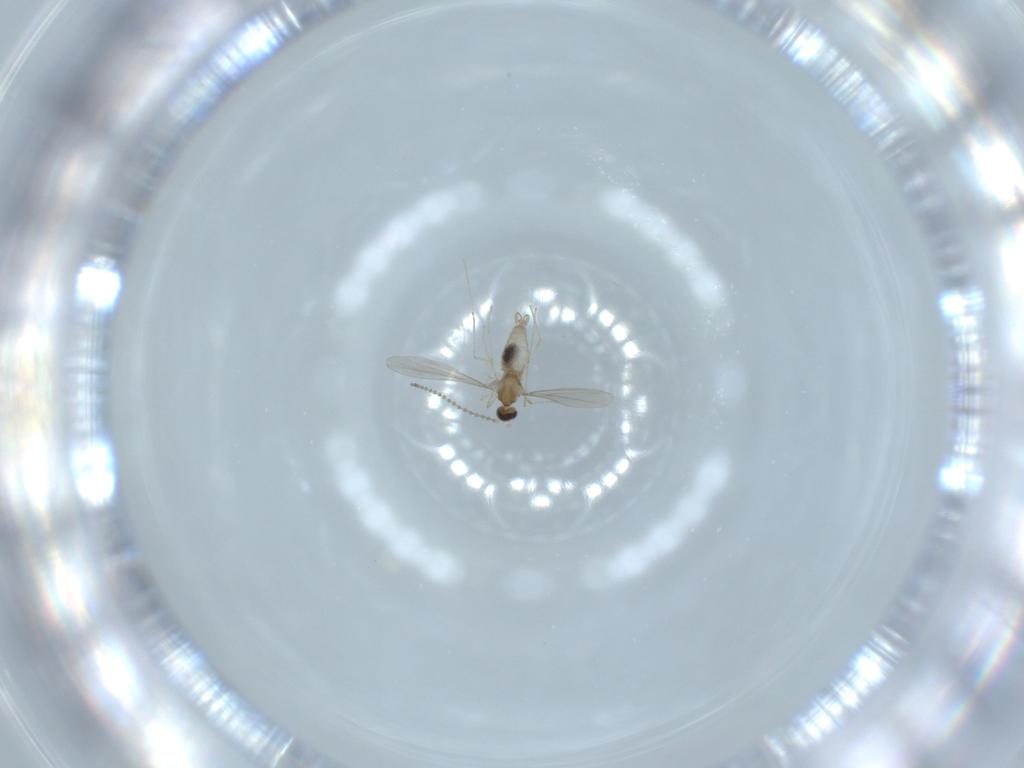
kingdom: Animalia
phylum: Arthropoda
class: Insecta
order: Diptera
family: Cecidomyiidae
